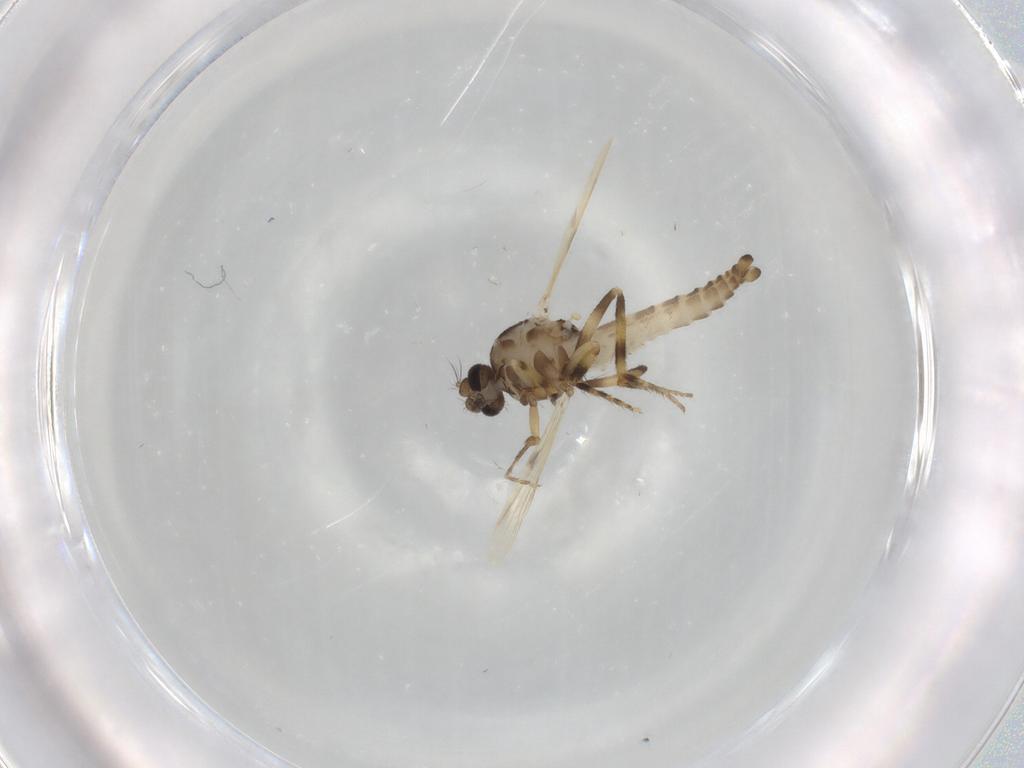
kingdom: Animalia
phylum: Arthropoda
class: Insecta
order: Diptera
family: Ceratopogonidae
